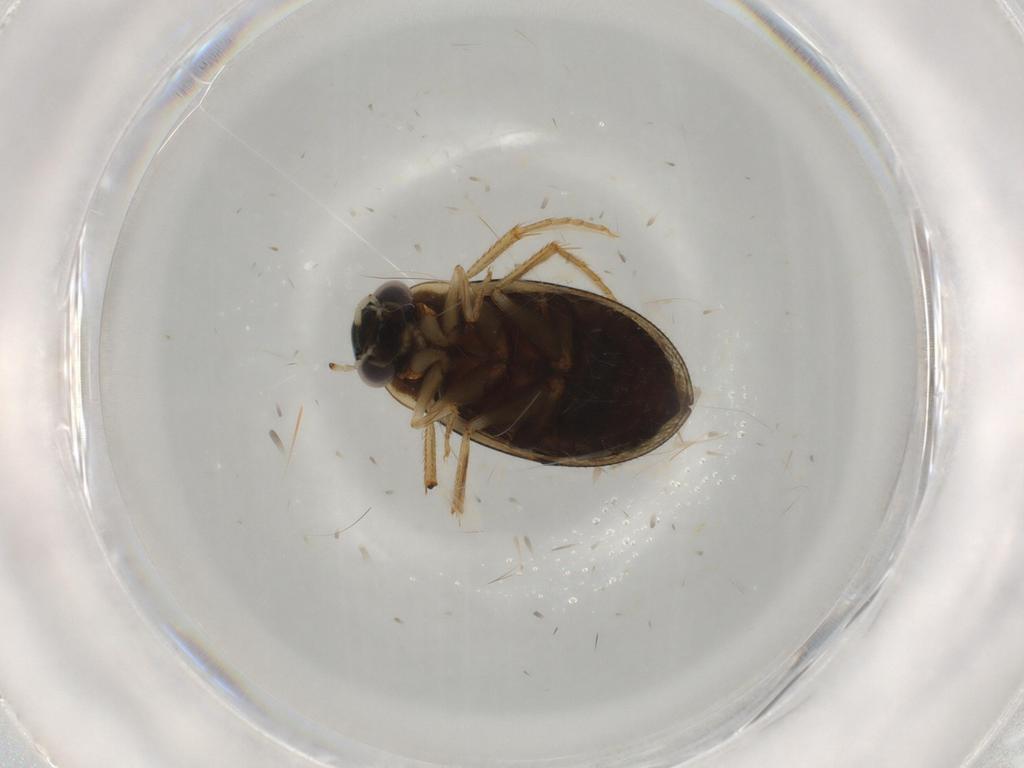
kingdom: Animalia
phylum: Arthropoda
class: Insecta
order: Coleoptera
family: Hydrophilidae
